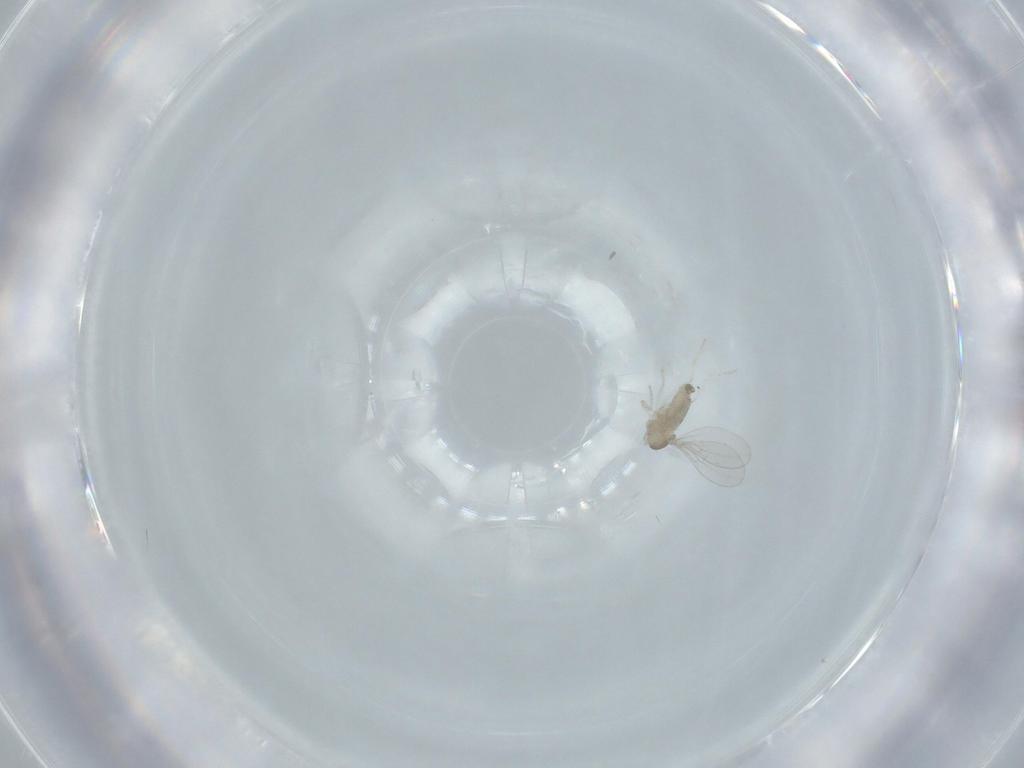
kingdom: Animalia
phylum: Arthropoda
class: Insecta
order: Diptera
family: Cecidomyiidae
